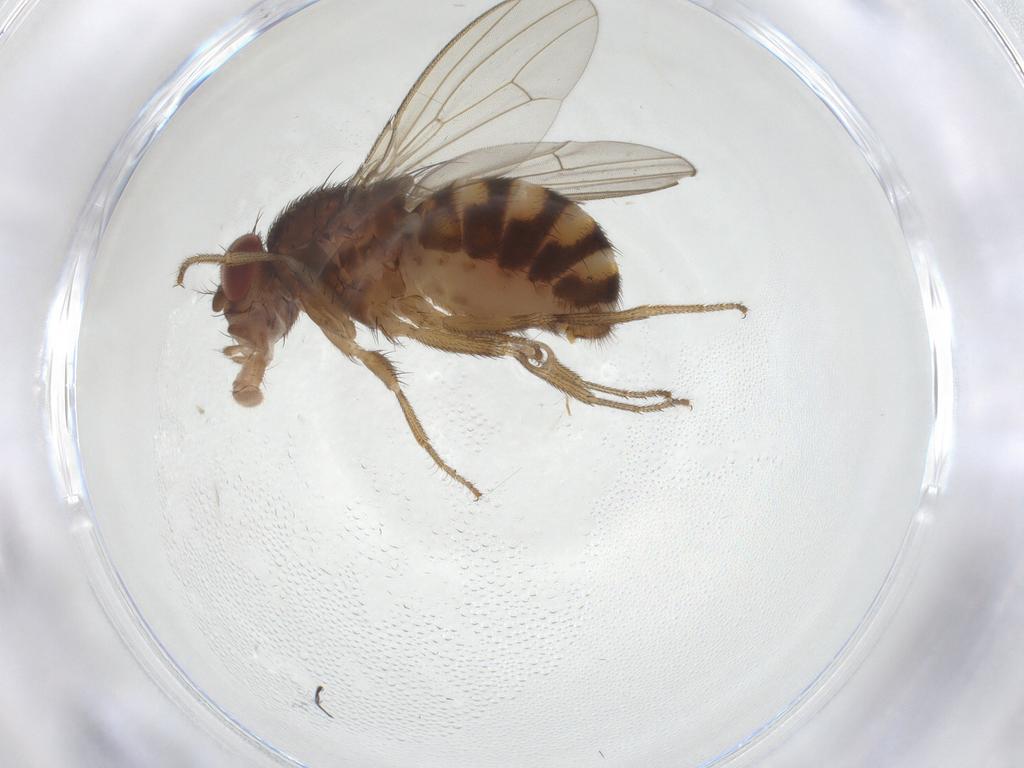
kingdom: Animalia
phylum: Arthropoda
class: Insecta
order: Diptera
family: Drosophilidae
